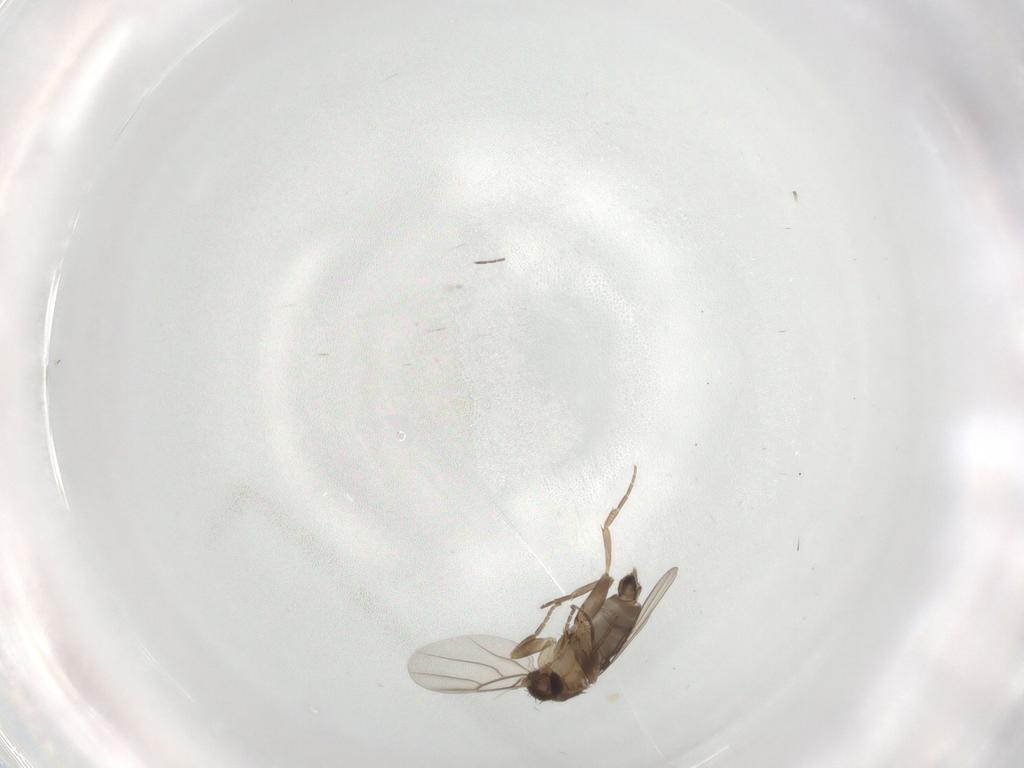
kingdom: Animalia
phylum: Arthropoda
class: Insecta
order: Diptera
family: Phoridae
